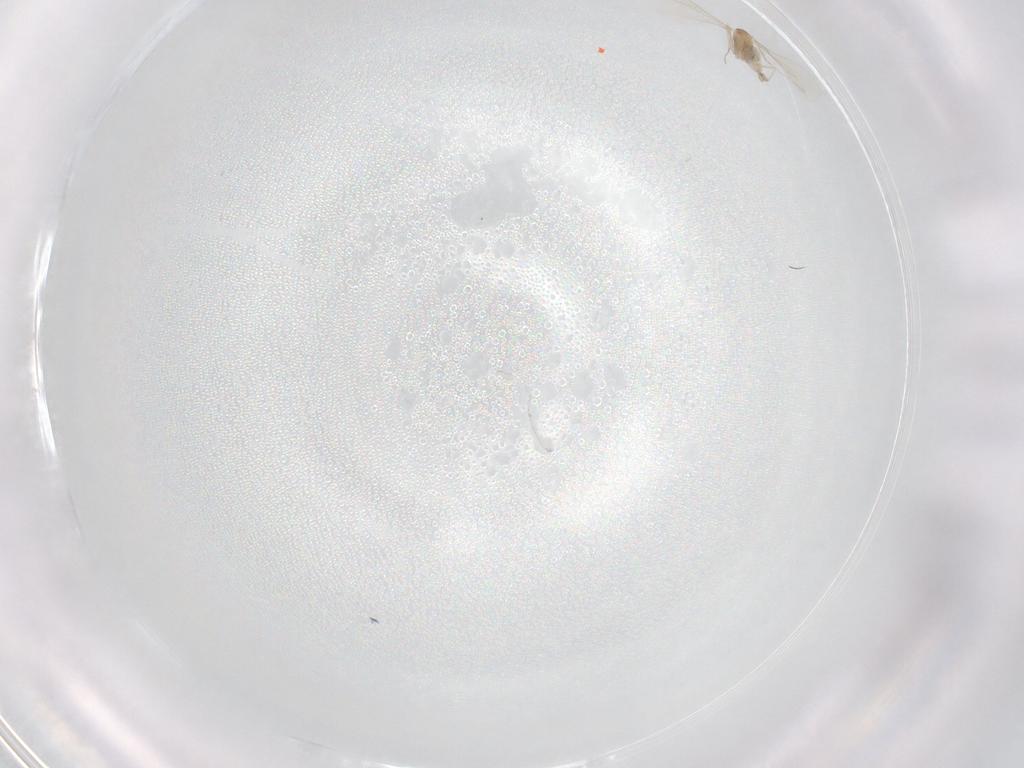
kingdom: Animalia
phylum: Arthropoda
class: Insecta
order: Diptera
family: Cecidomyiidae
